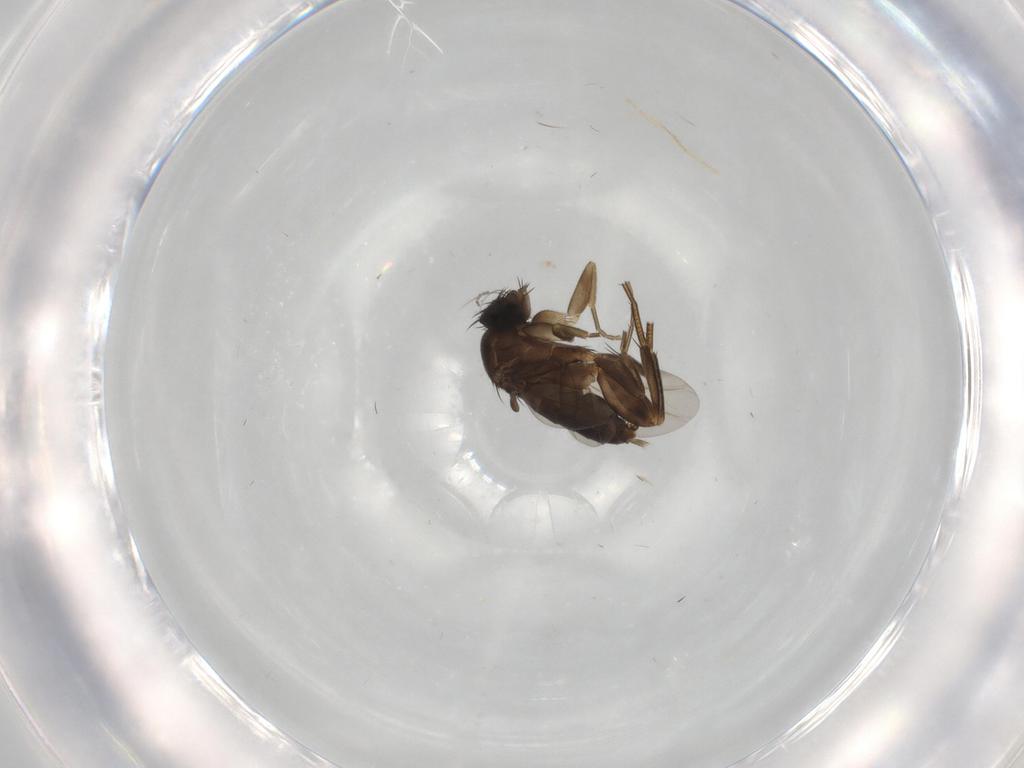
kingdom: Animalia
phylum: Arthropoda
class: Insecta
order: Diptera
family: Phoridae
